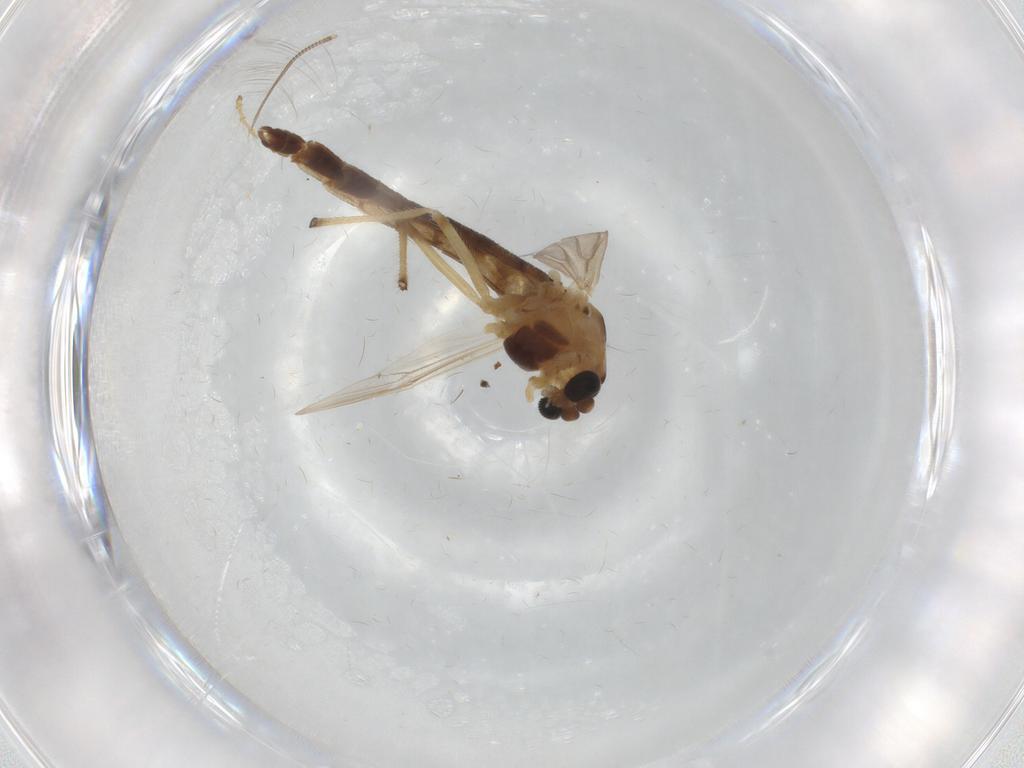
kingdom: Animalia
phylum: Arthropoda
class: Insecta
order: Diptera
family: Chironomidae
